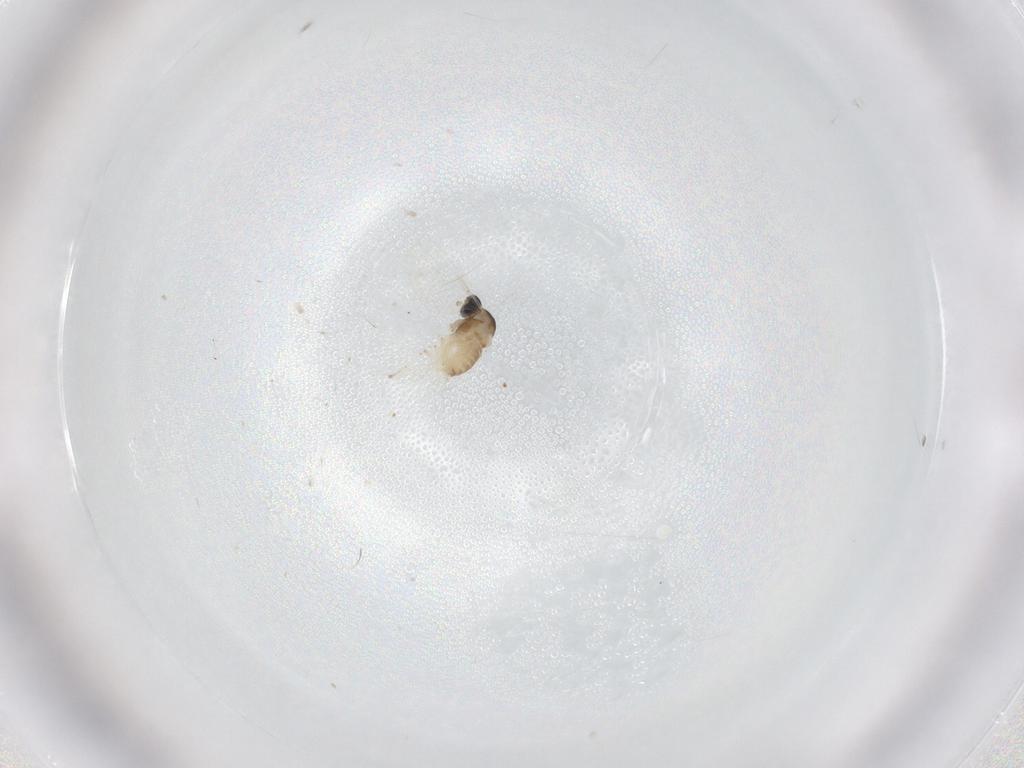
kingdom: Animalia
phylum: Arthropoda
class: Insecta
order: Diptera
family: Cecidomyiidae
